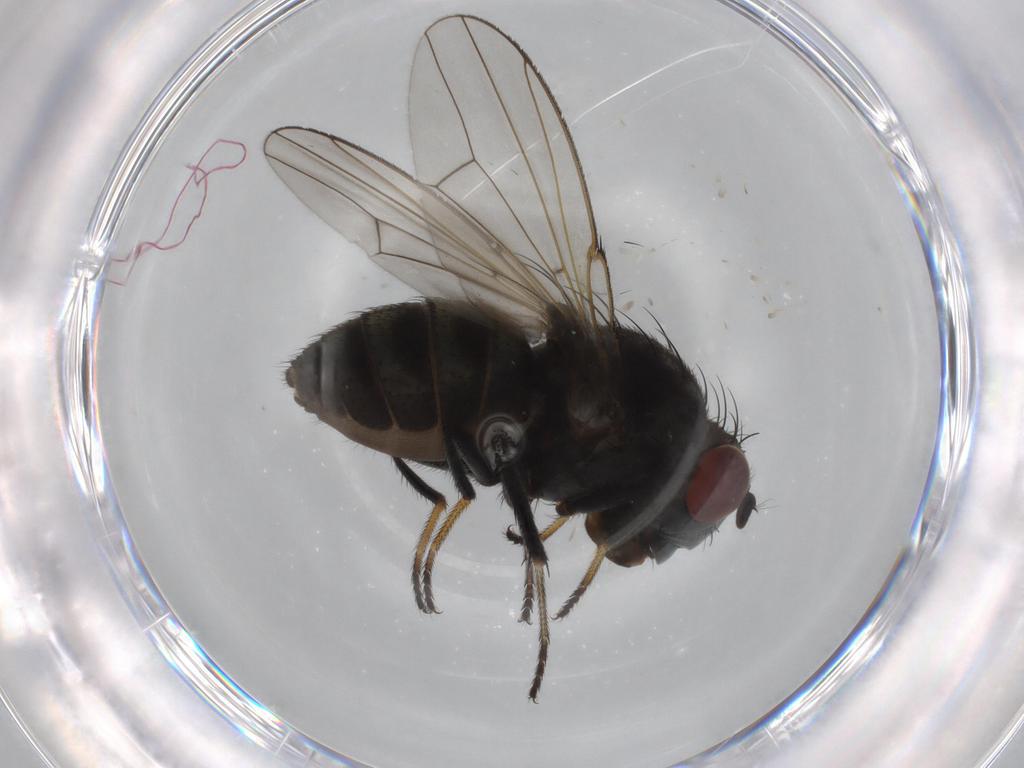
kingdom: Animalia
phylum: Arthropoda
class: Insecta
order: Diptera
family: Ephydridae
